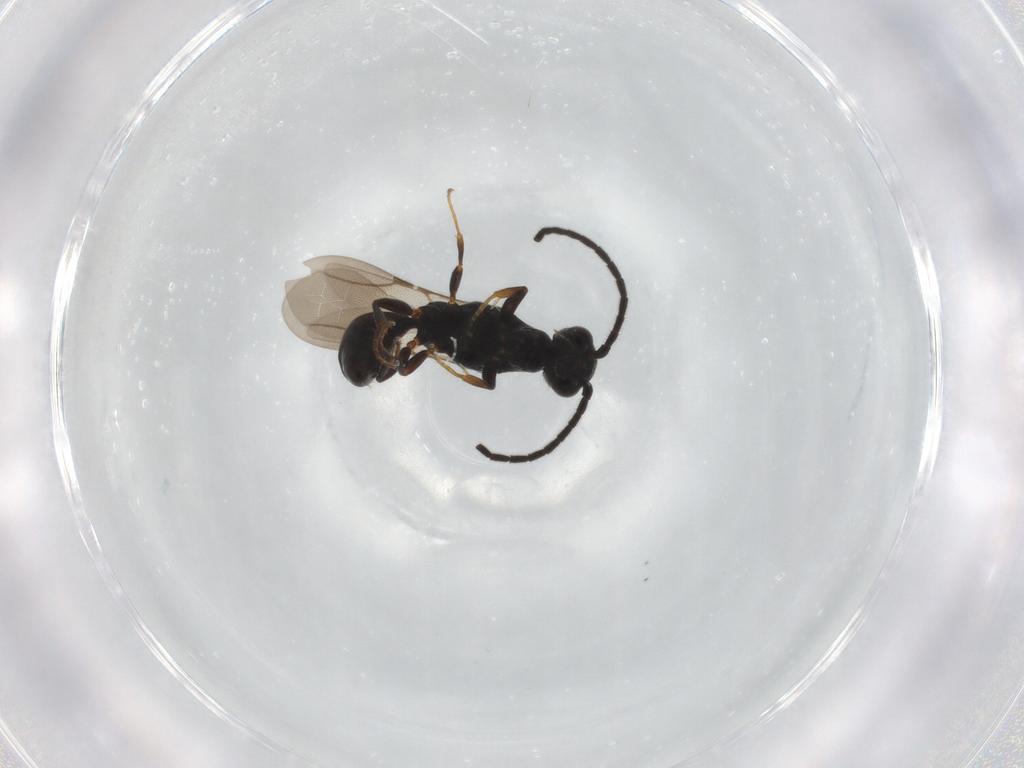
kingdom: Animalia
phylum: Arthropoda
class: Insecta
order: Hymenoptera
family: Bethylidae
